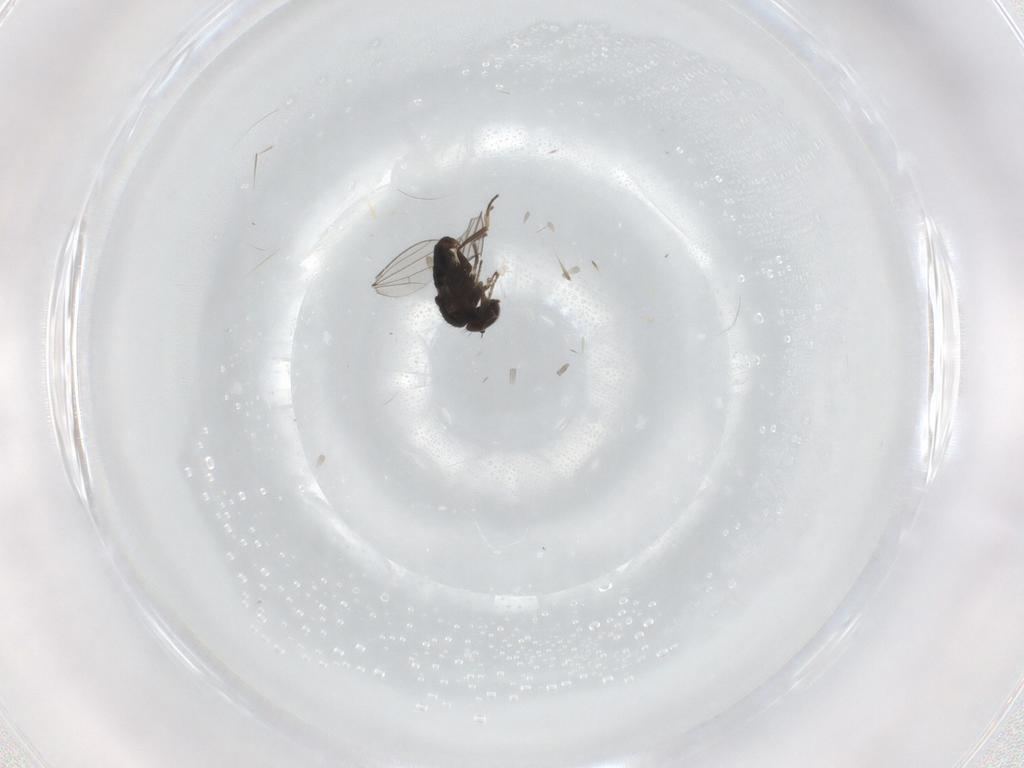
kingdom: Animalia
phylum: Arthropoda
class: Insecta
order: Diptera
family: Dolichopodidae
